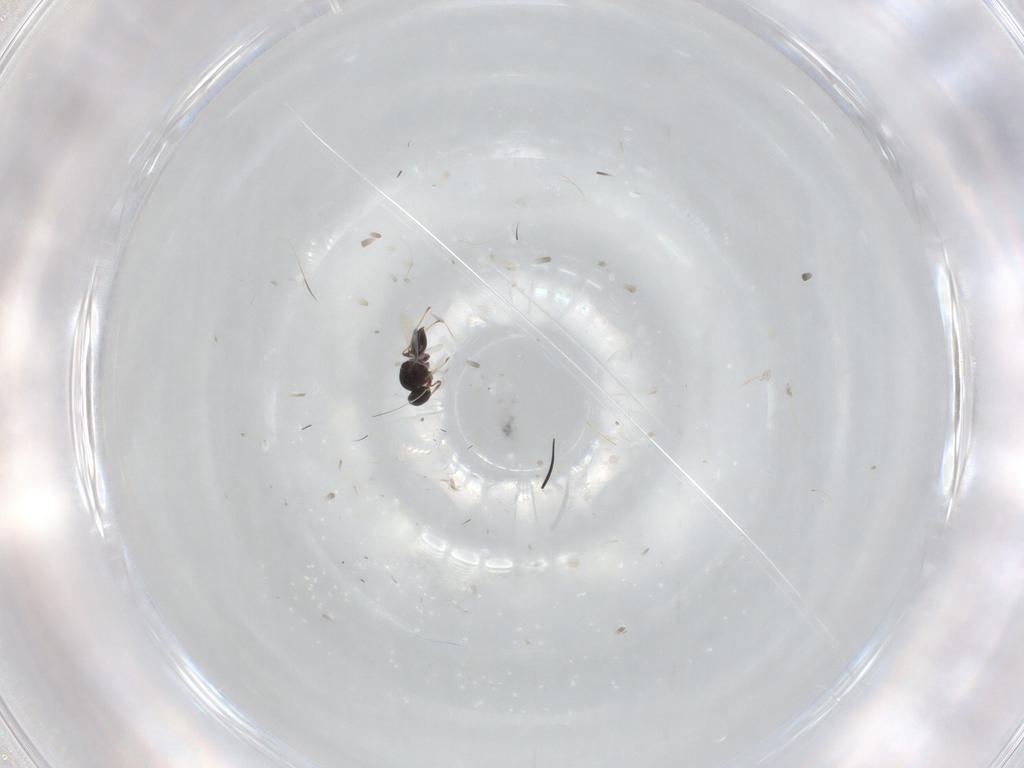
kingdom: Animalia
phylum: Arthropoda
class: Insecta
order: Hymenoptera
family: Platygastridae
